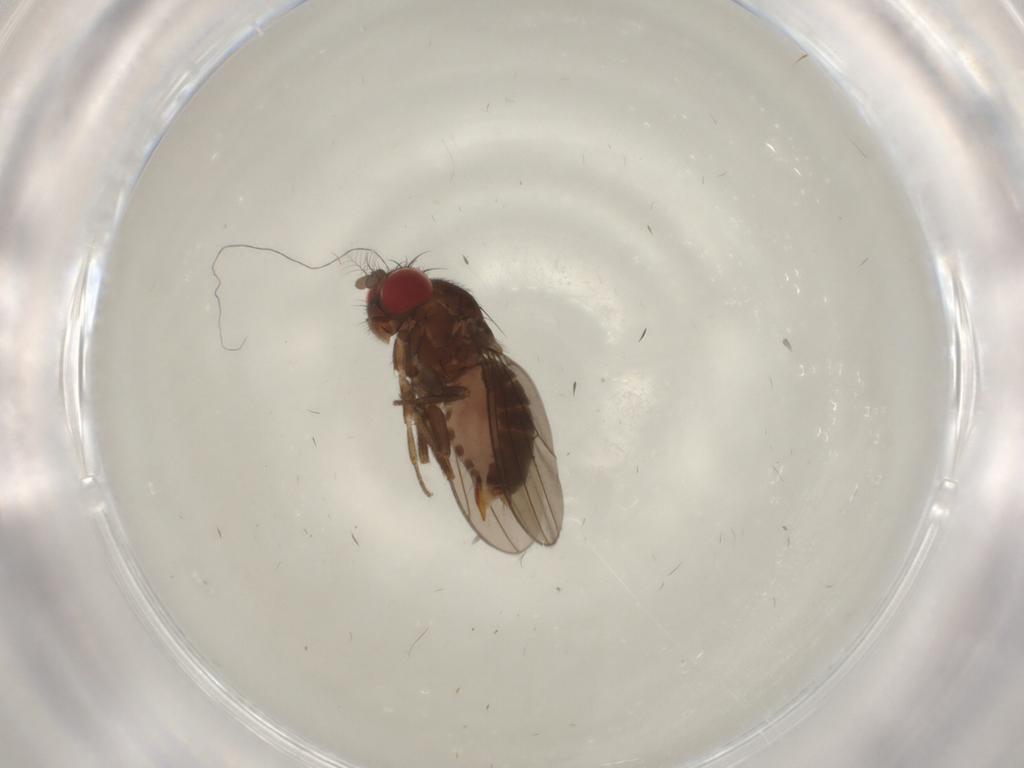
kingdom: Animalia
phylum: Arthropoda
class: Insecta
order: Diptera
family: Drosophilidae
